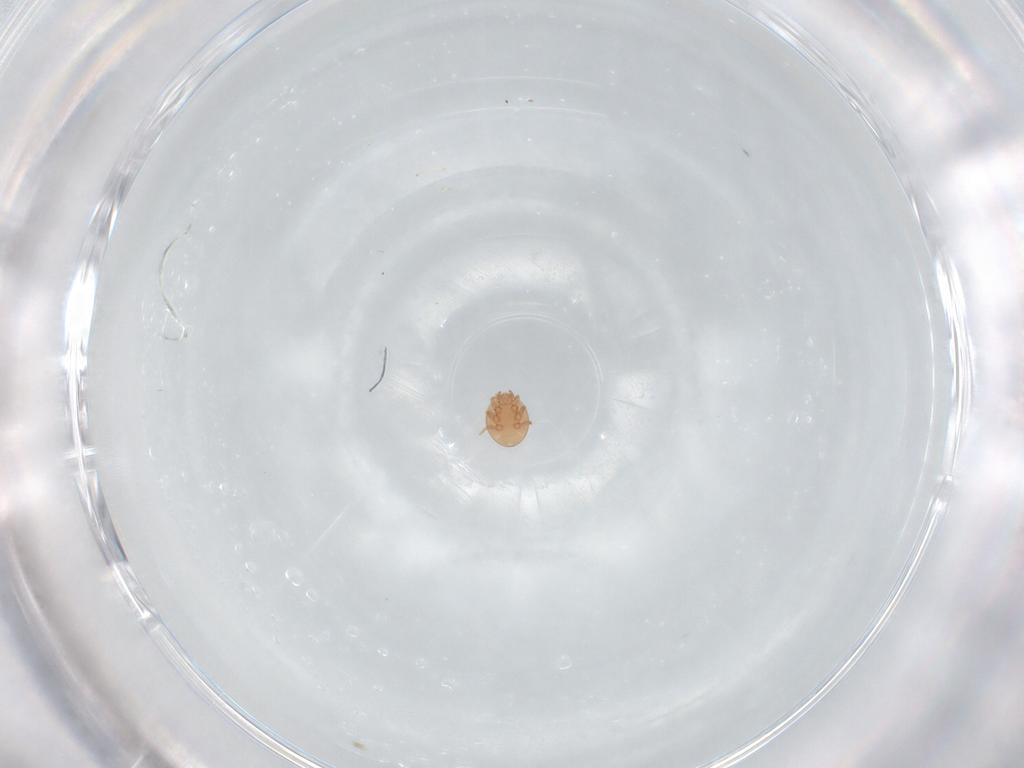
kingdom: Animalia
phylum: Arthropoda
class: Arachnida
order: Mesostigmata
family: Trematuridae
